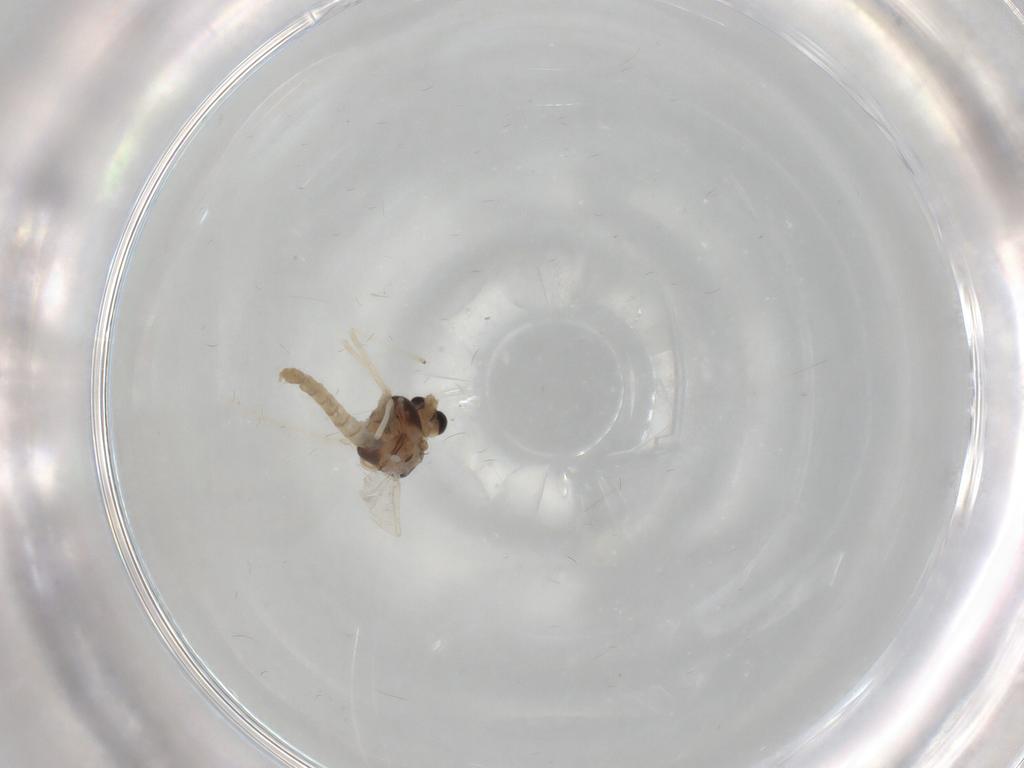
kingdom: Animalia
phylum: Arthropoda
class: Insecta
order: Diptera
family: Chironomidae
